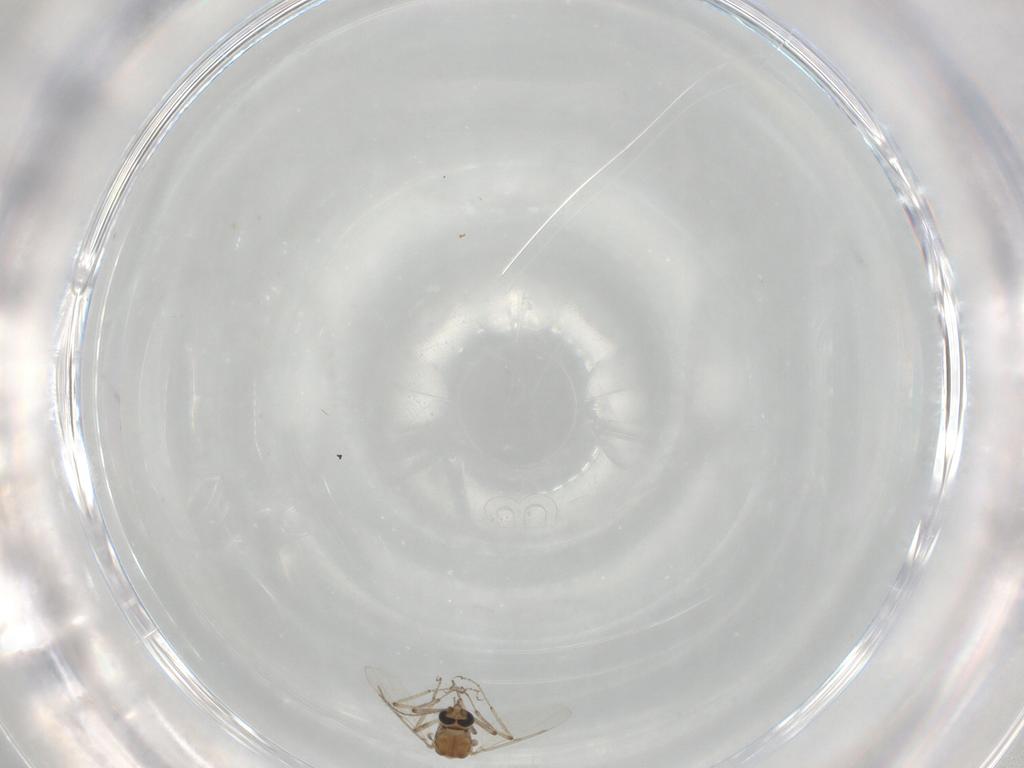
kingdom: Animalia
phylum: Arthropoda
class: Insecta
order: Diptera
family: Ceratopogonidae
